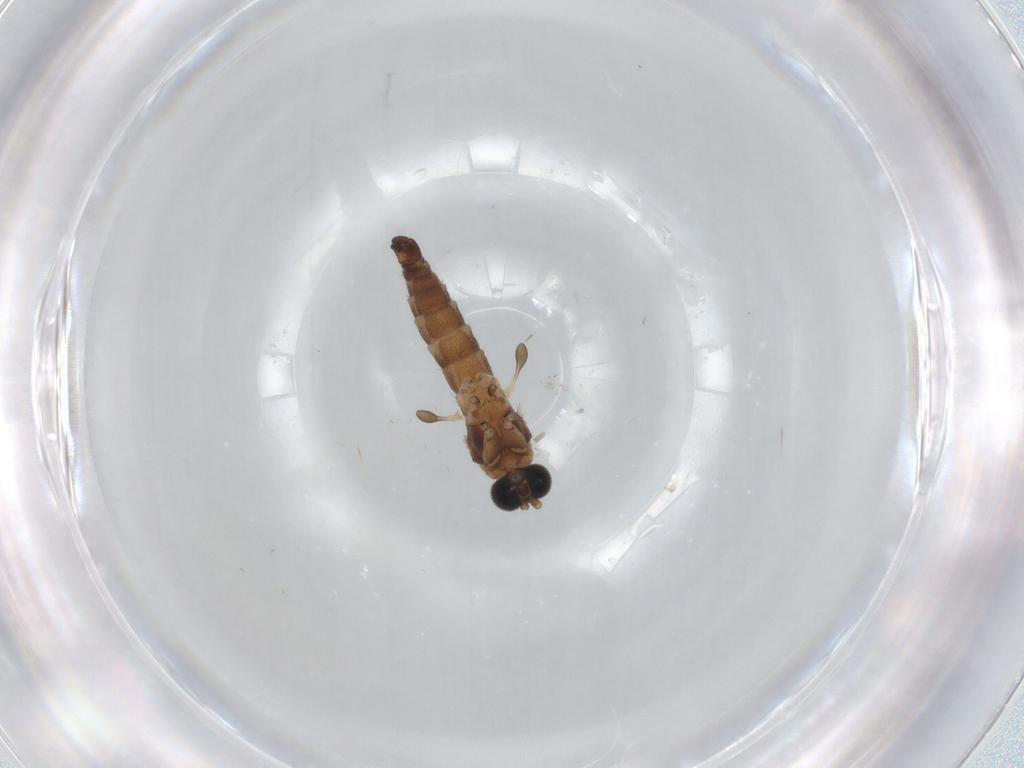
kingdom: Animalia
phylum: Arthropoda
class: Insecta
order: Diptera
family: Sciaridae
